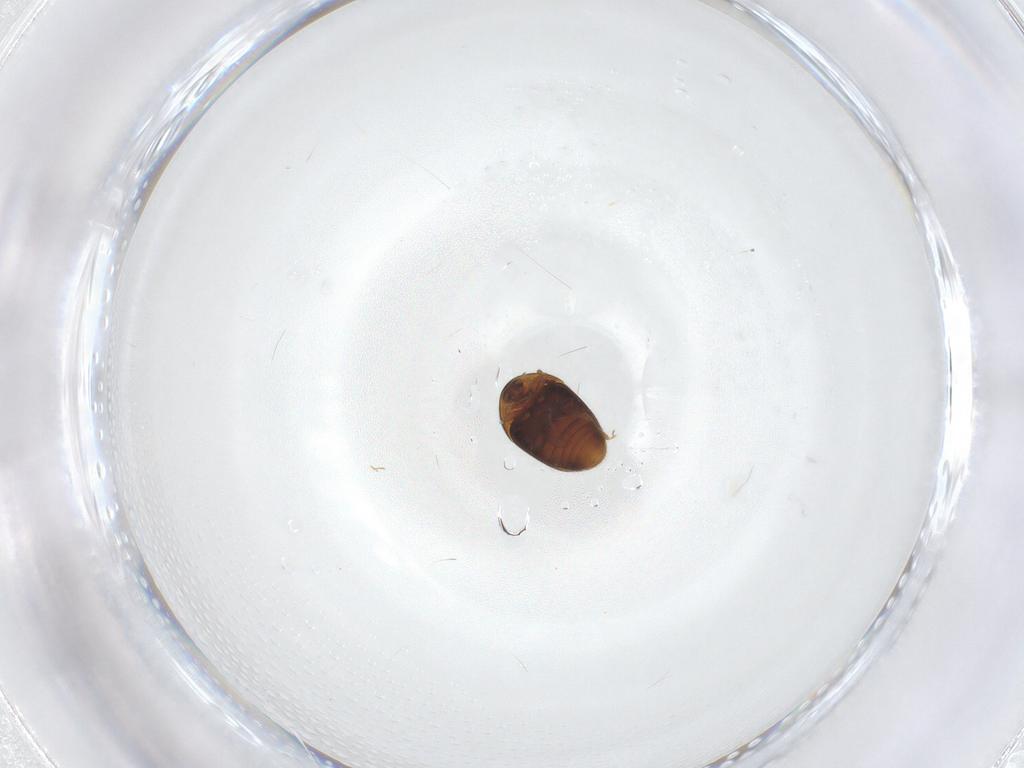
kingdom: Animalia
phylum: Arthropoda
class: Insecta
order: Coleoptera
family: Corylophidae
